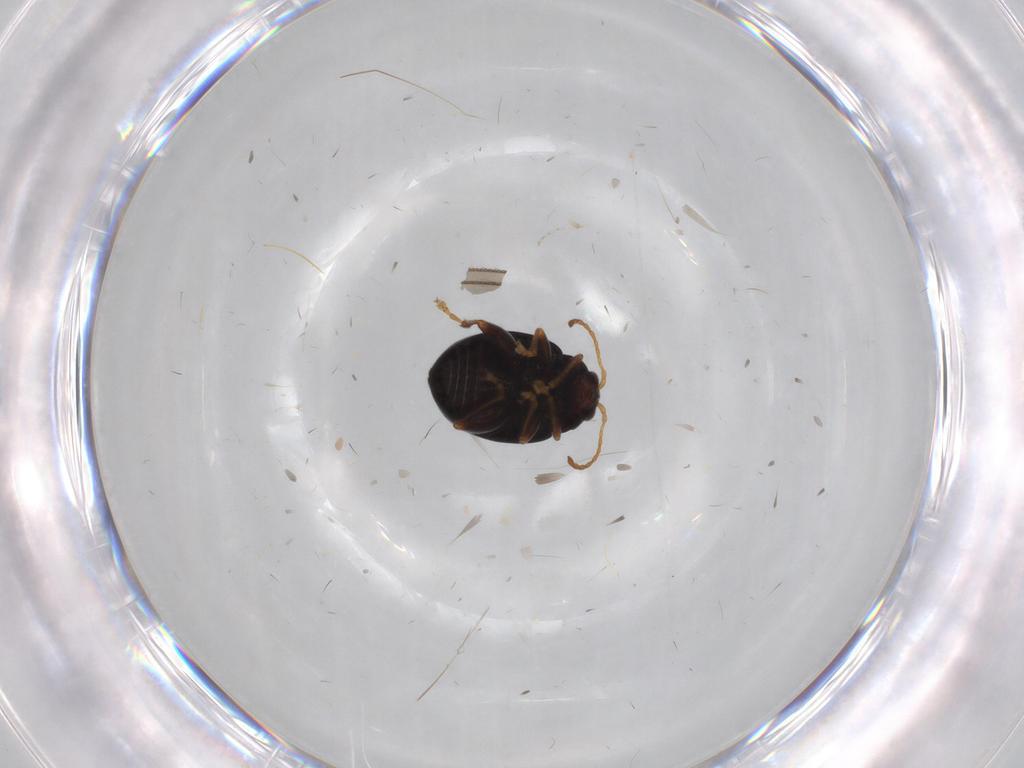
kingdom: Animalia
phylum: Arthropoda
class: Insecta
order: Coleoptera
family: Chrysomelidae
